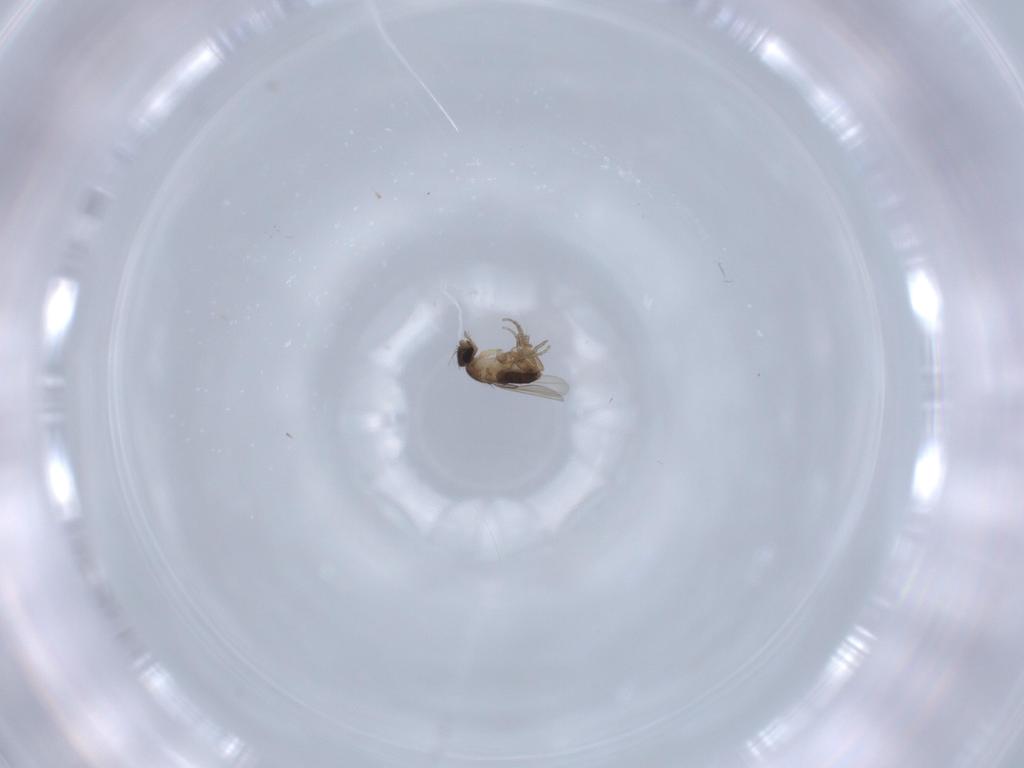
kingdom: Animalia
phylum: Arthropoda
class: Insecta
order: Diptera
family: Phoridae
